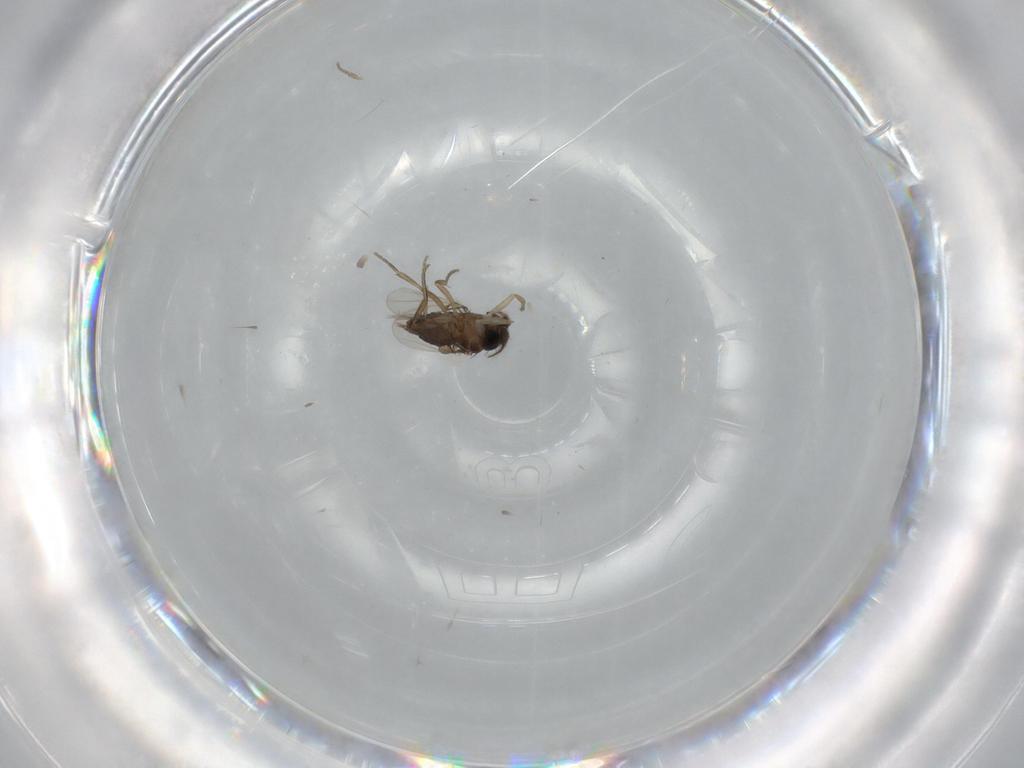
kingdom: Animalia
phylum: Arthropoda
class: Insecta
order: Diptera
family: Phoridae
